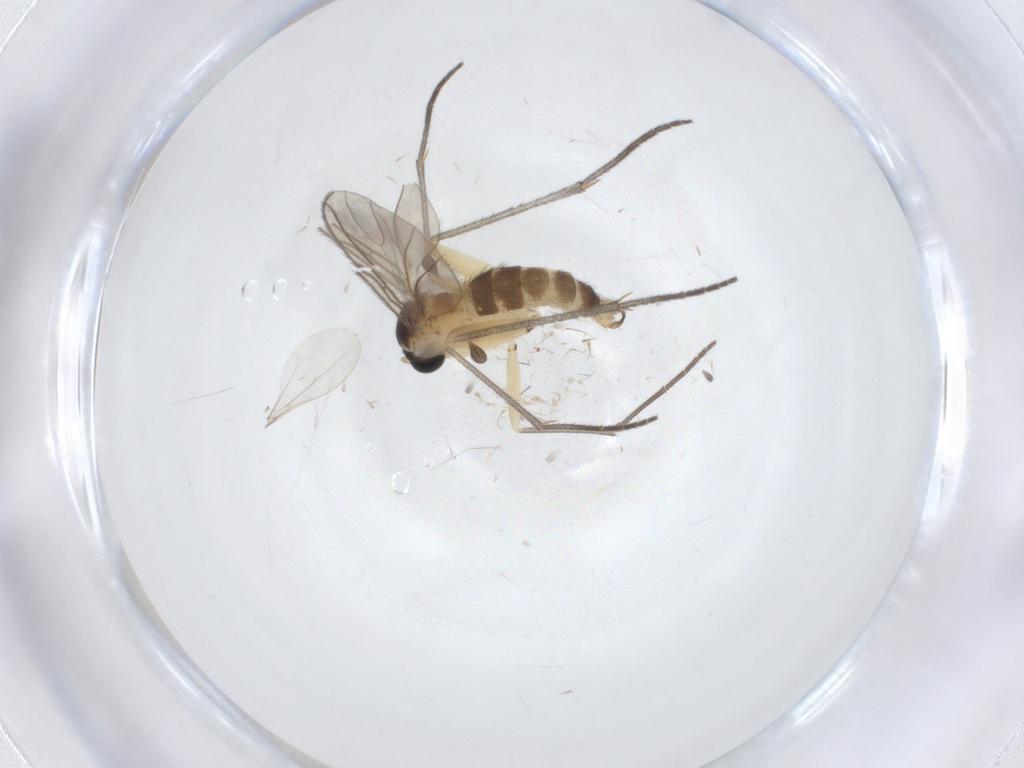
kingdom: Animalia
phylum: Arthropoda
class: Insecta
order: Diptera
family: Sciaridae
